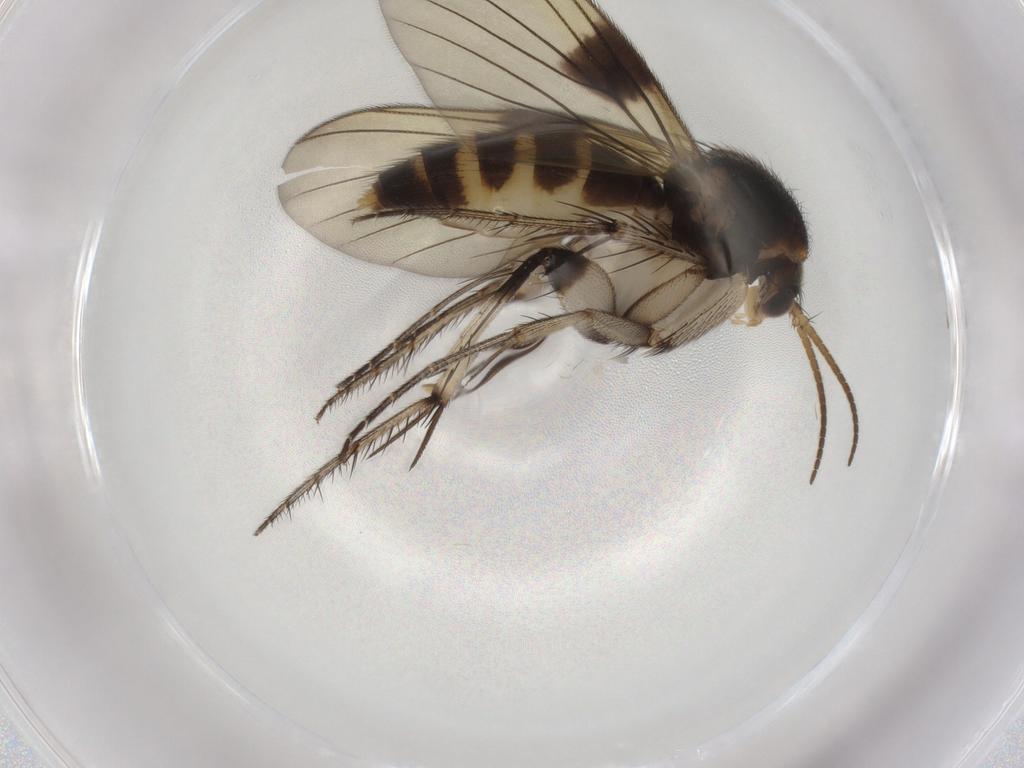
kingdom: Animalia
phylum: Arthropoda
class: Insecta
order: Diptera
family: Mycetophilidae
